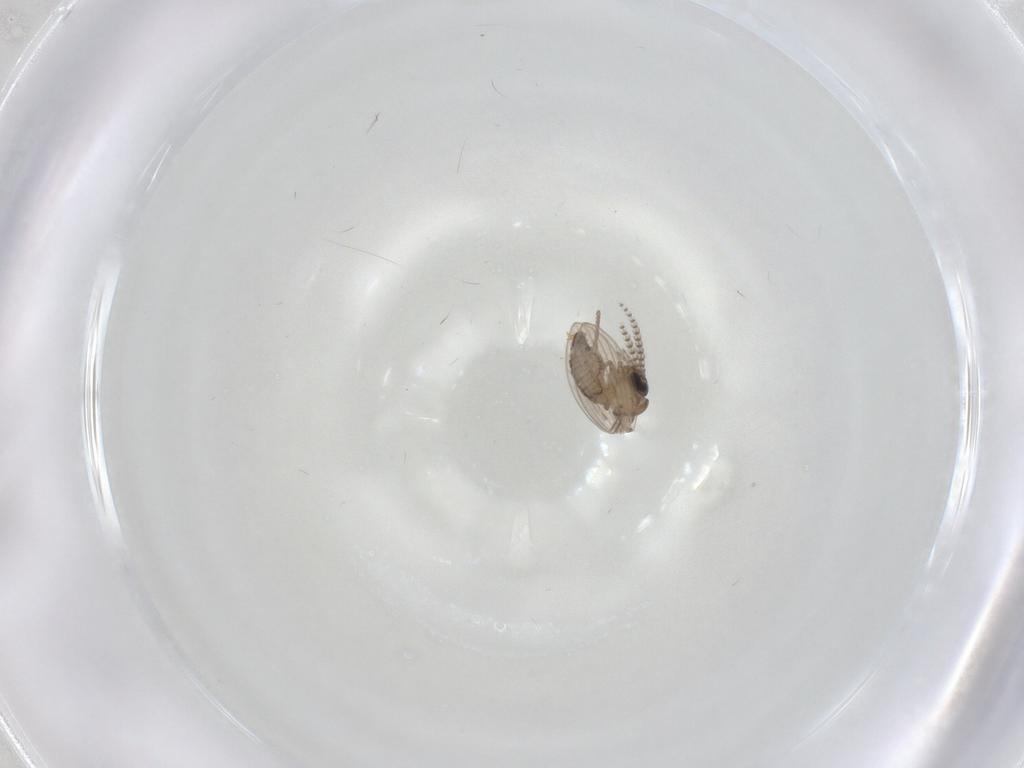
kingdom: Animalia
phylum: Arthropoda
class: Insecta
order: Diptera
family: Psychodidae
